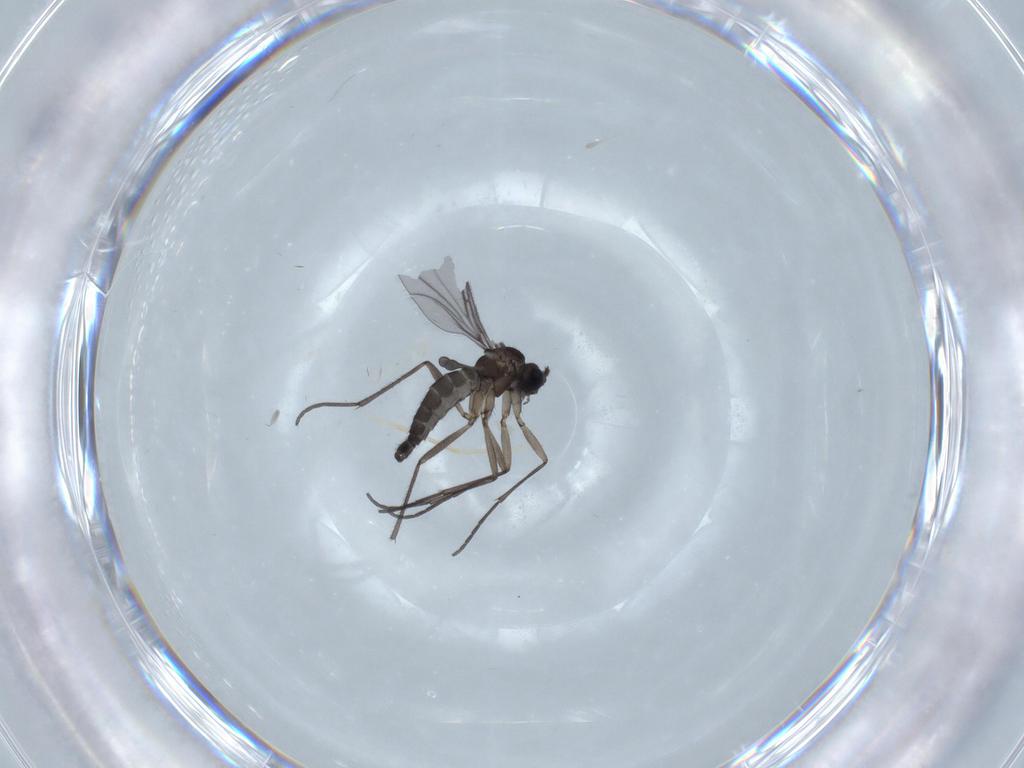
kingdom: Animalia
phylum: Arthropoda
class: Insecta
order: Diptera
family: Sciaridae
